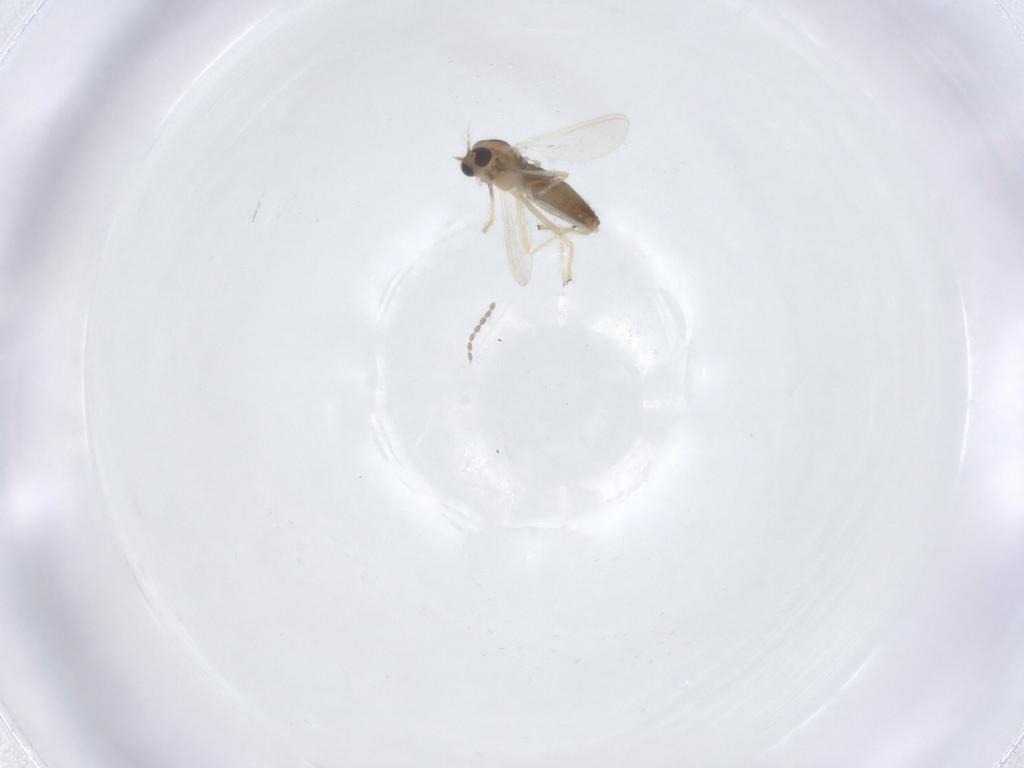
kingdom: Animalia
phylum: Arthropoda
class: Insecta
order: Diptera
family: Cecidomyiidae
